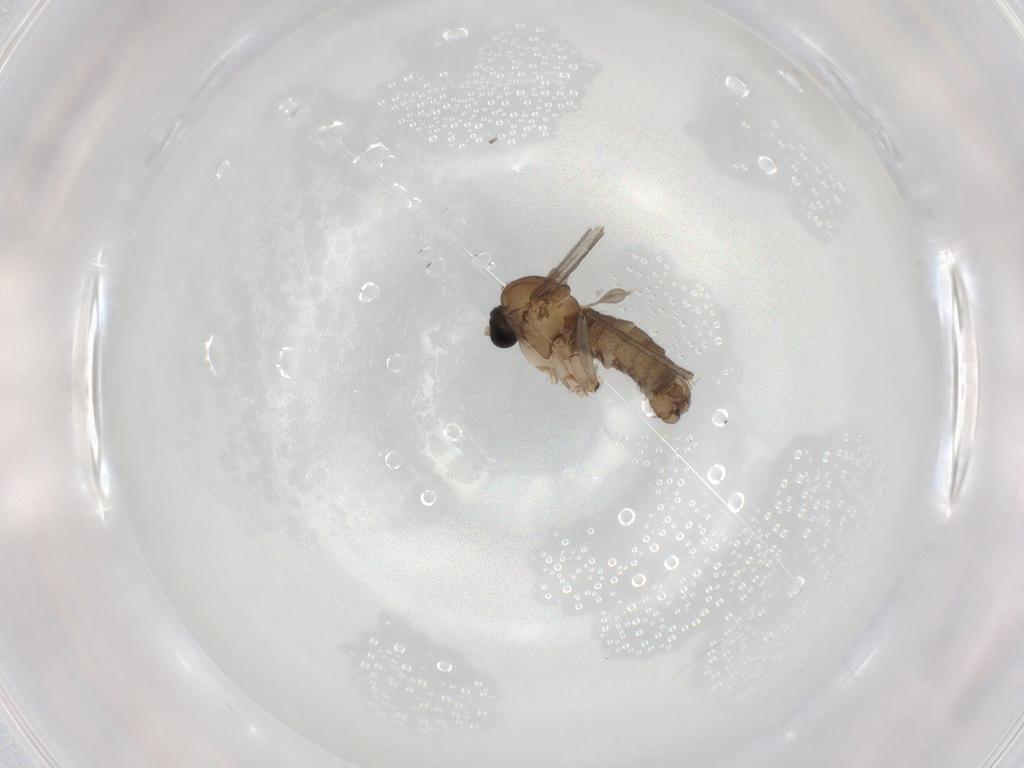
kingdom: Animalia
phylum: Arthropoda
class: Insecta
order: Diptera
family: Sciaridae
